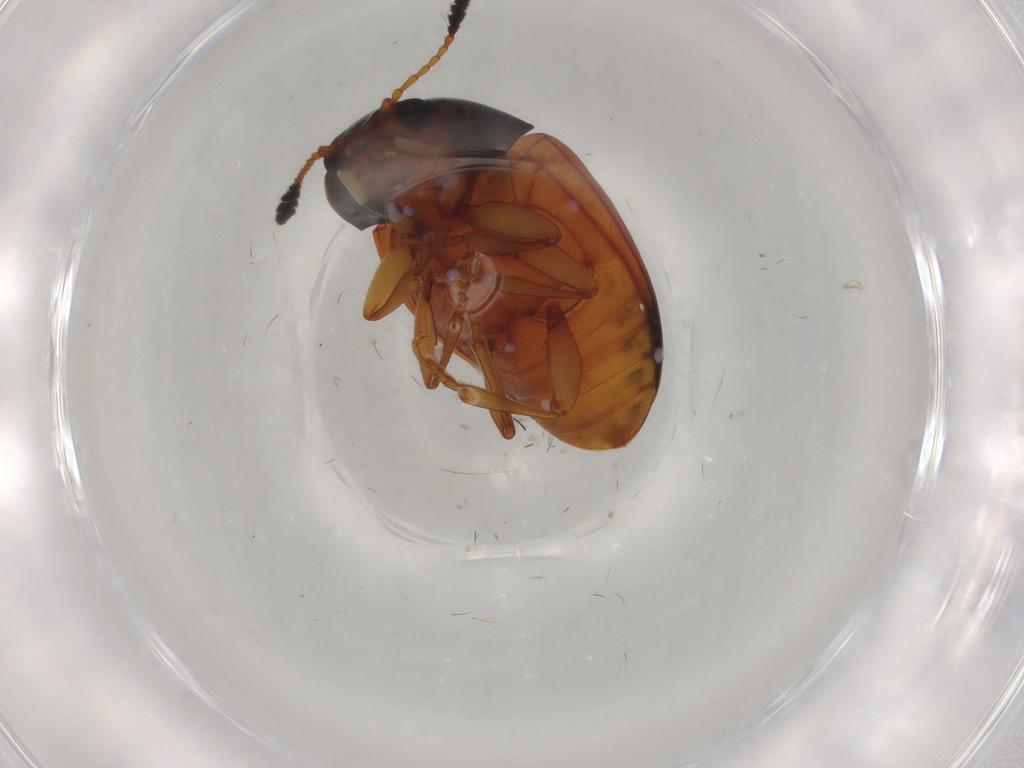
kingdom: Animalia
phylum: Arthropoda
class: Insecta
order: Coleoptera
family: Erotylidae
